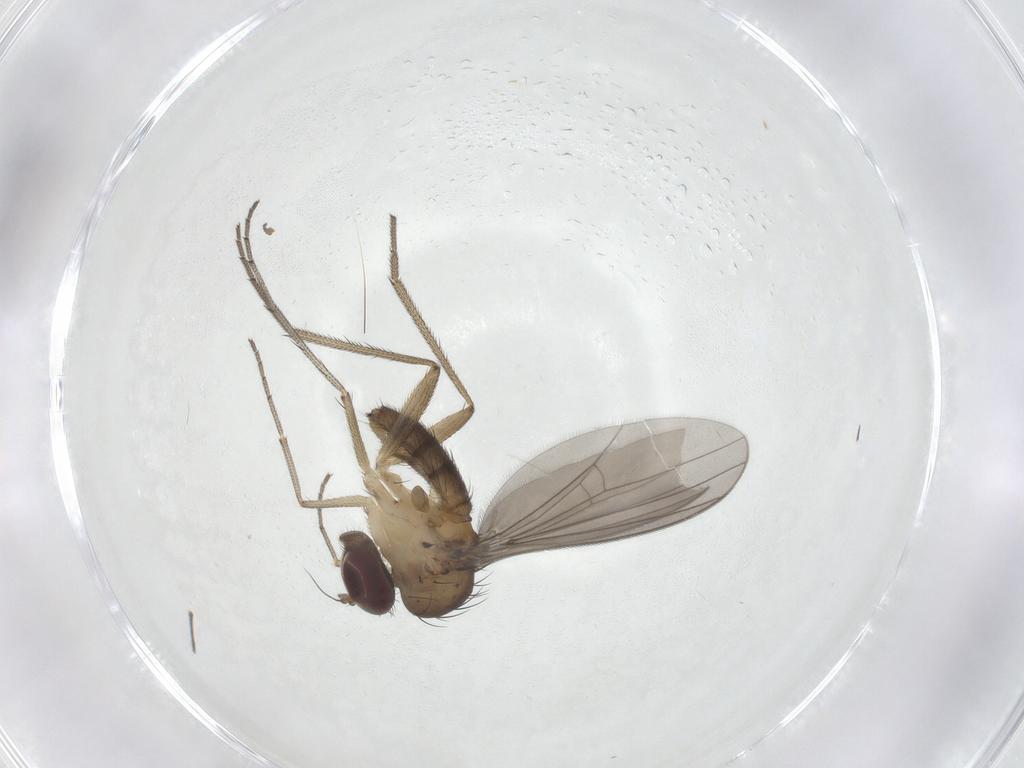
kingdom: Animalia
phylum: Arthropoda
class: Insecta
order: Diptera
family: Dolichopodidae
